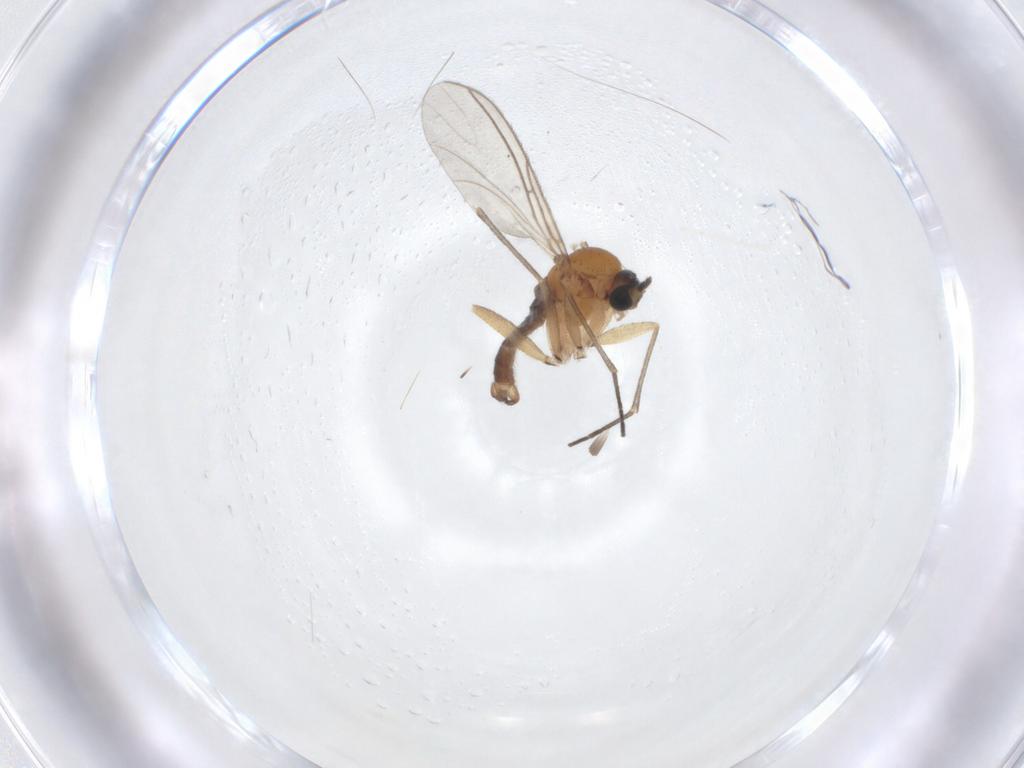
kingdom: Animalia
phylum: Arthropoda
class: Insecta
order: Diptera
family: Sciaridae
